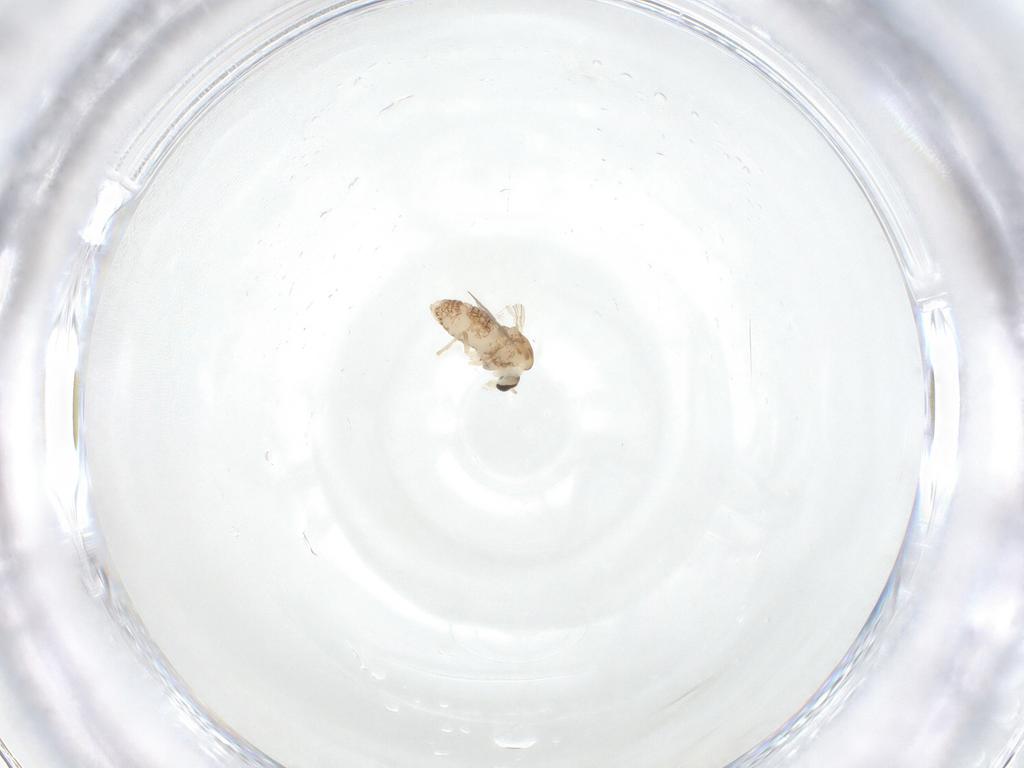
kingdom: Animalia
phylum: Arthropoda
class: Insecta
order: Diptera
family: Chironomidae
